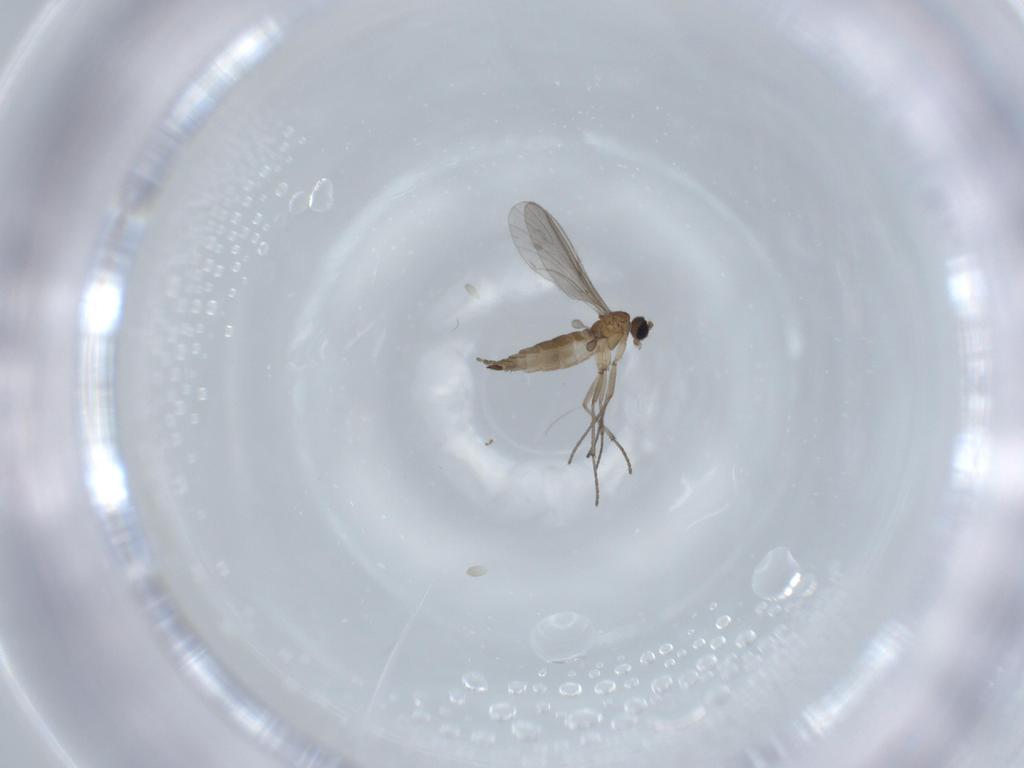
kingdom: Animalia
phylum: Arthropoda
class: Insecta
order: Diptera
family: Sciaridae
